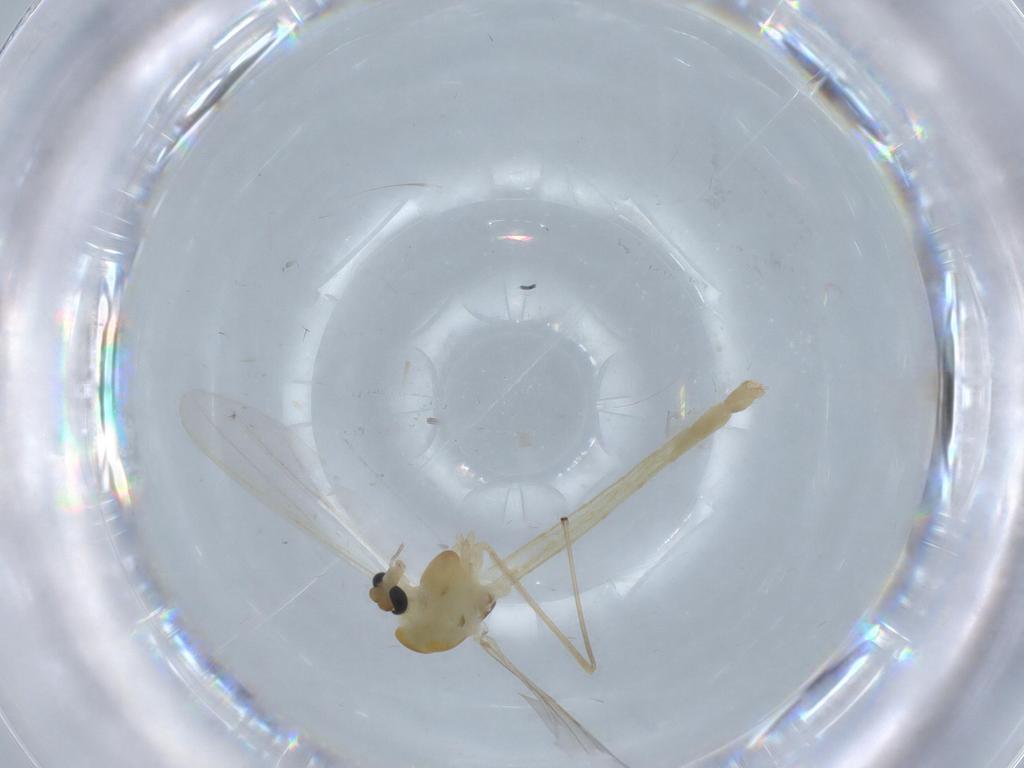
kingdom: Animalia
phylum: Arthropoda
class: Insecta
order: Diptera
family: Chironomidae
